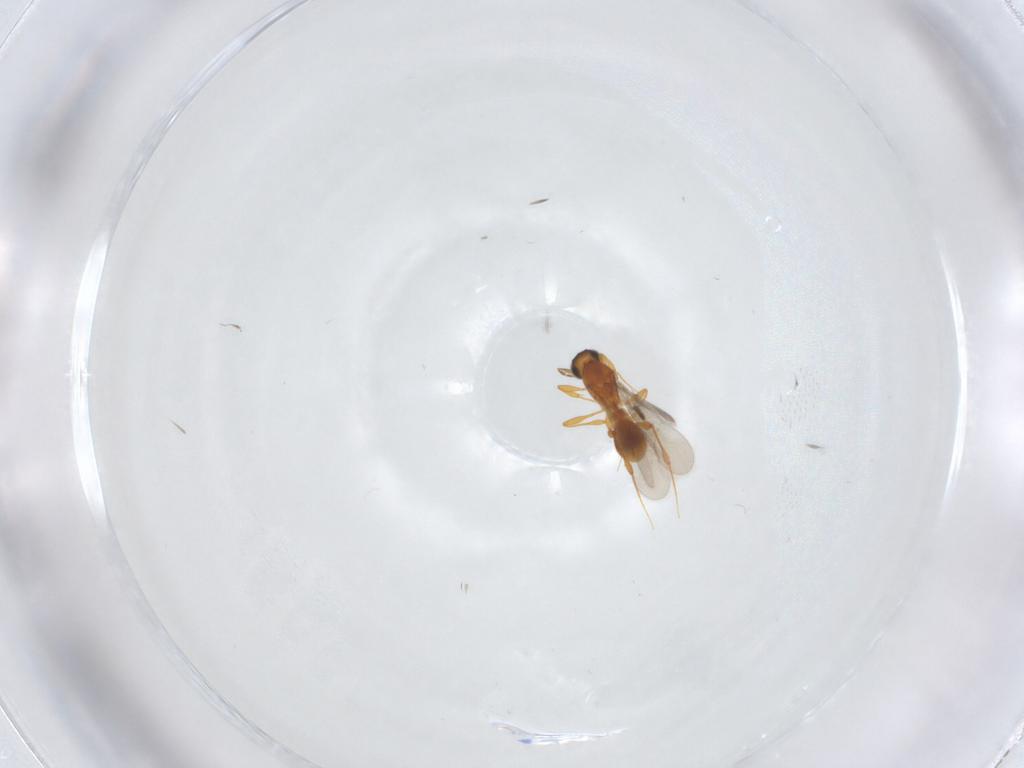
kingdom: Animalia
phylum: Arthropoda
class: Insecta
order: Hymenoptera
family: Platygastridae
